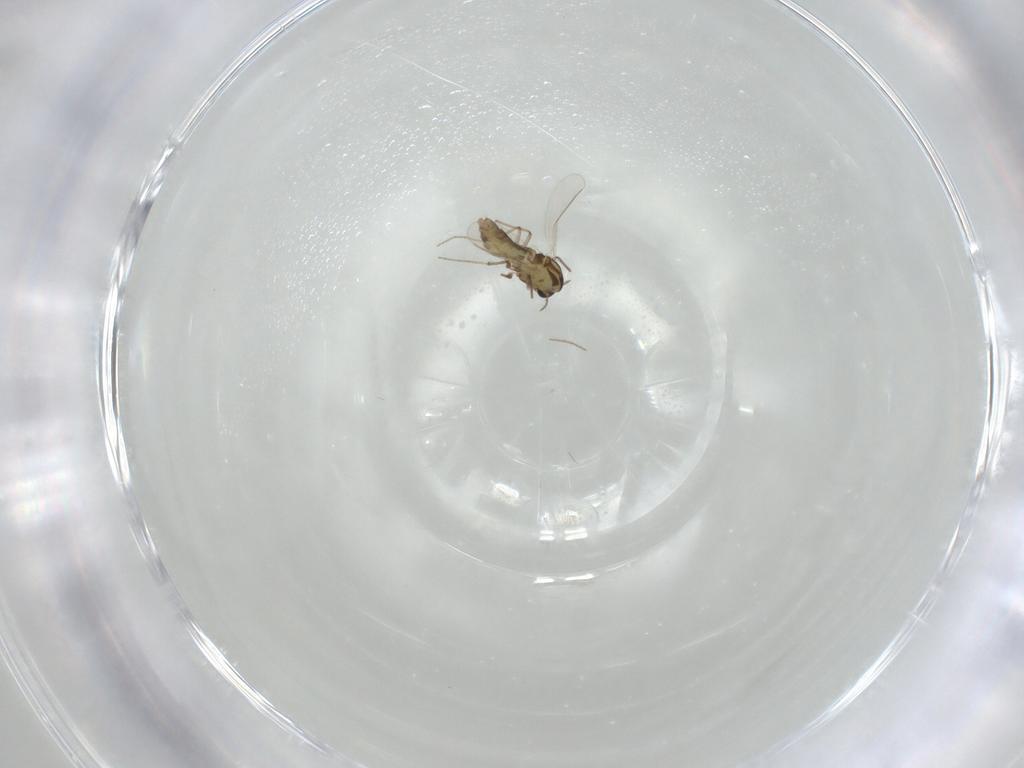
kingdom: Animalia
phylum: Arthropoda
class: Insecta
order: Diptera
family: Chironomidae
